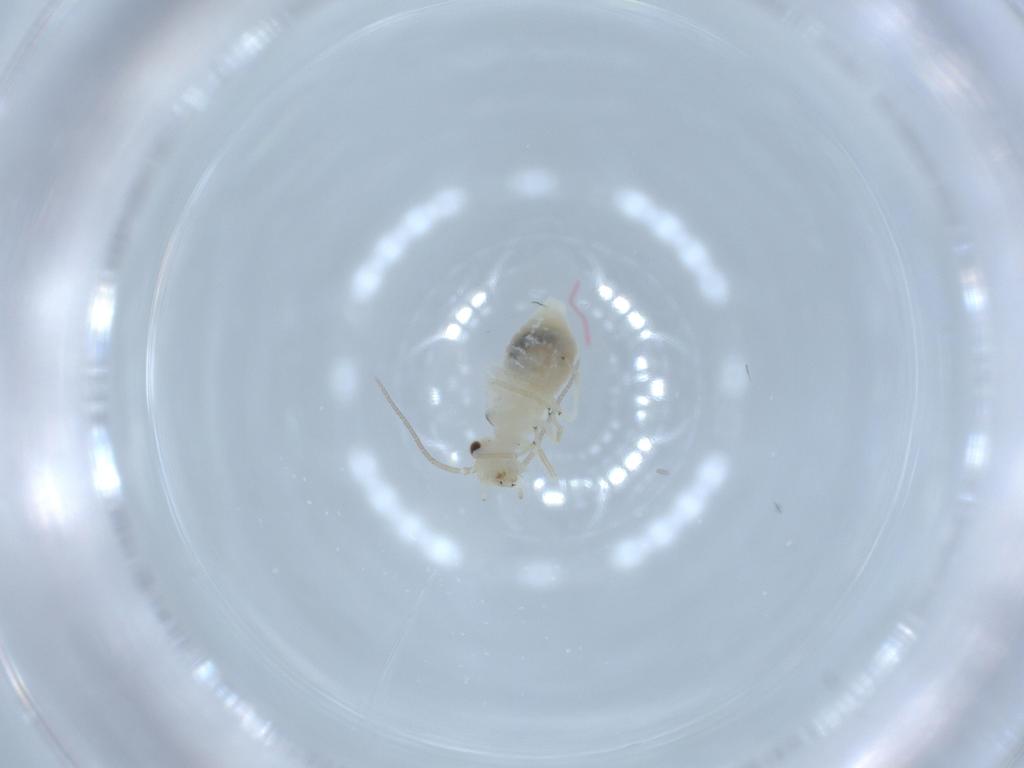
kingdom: Animalia
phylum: Arthropoda
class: Insecta
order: Psocodea
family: Caeciliusidae
